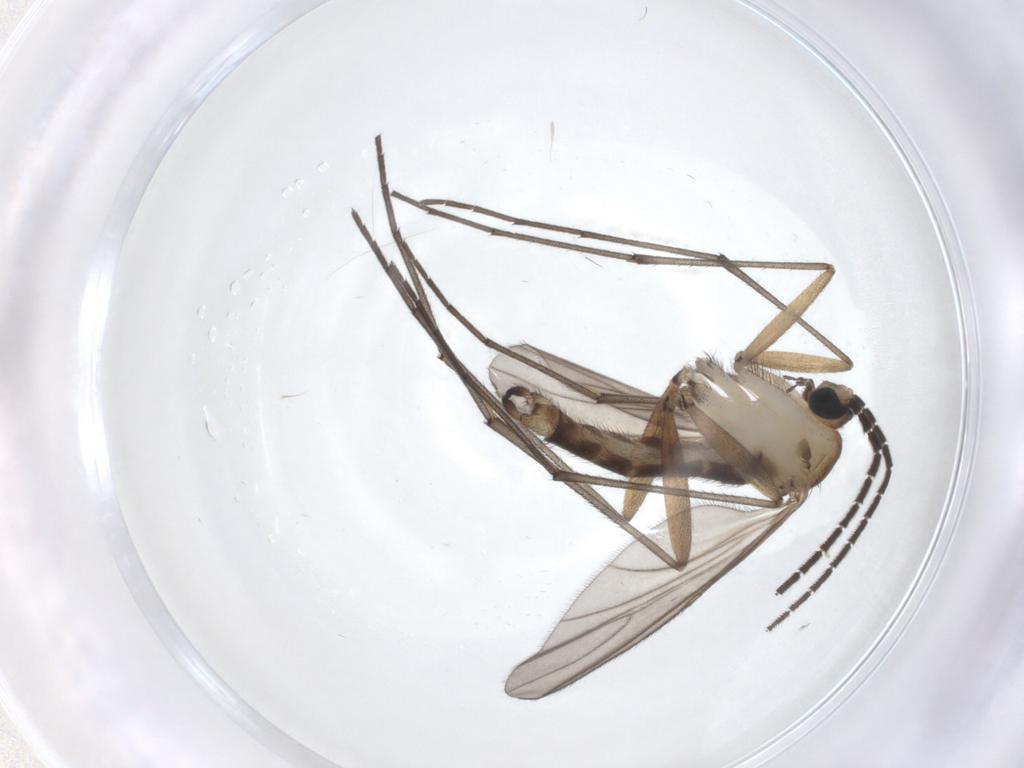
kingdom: Animalia
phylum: Arthropoda
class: Insecta
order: Diptera
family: Sciaridae
